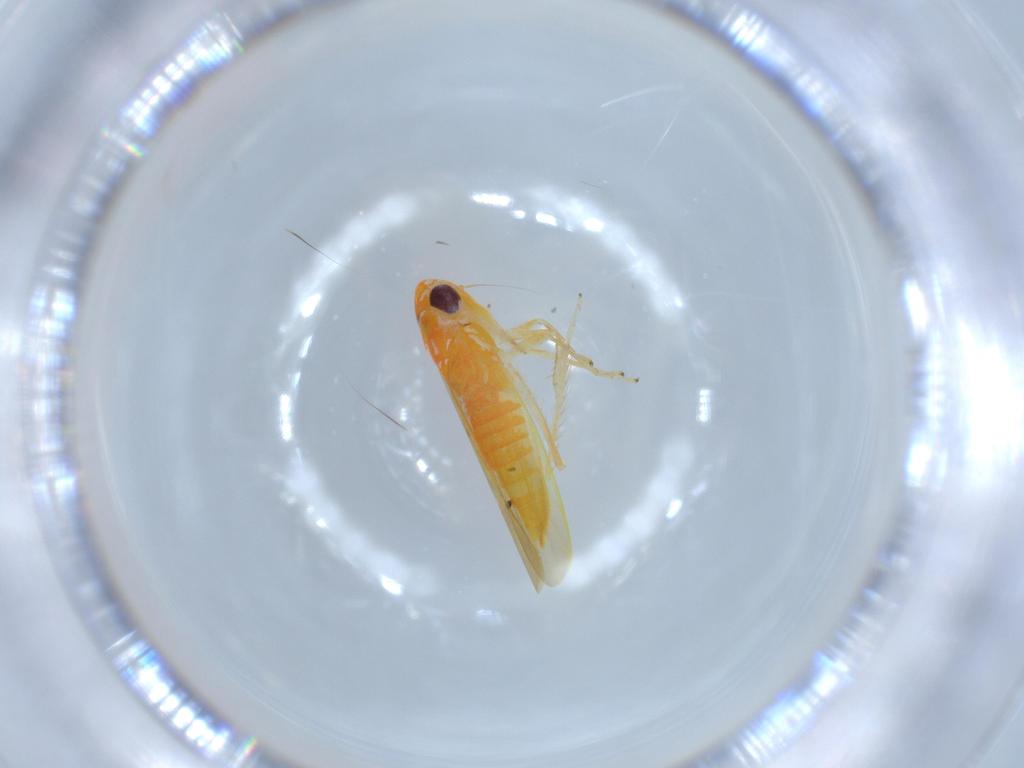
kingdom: Animalia
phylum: Arthropoda
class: Insecta
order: Hemiptera
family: Cicadellidae
